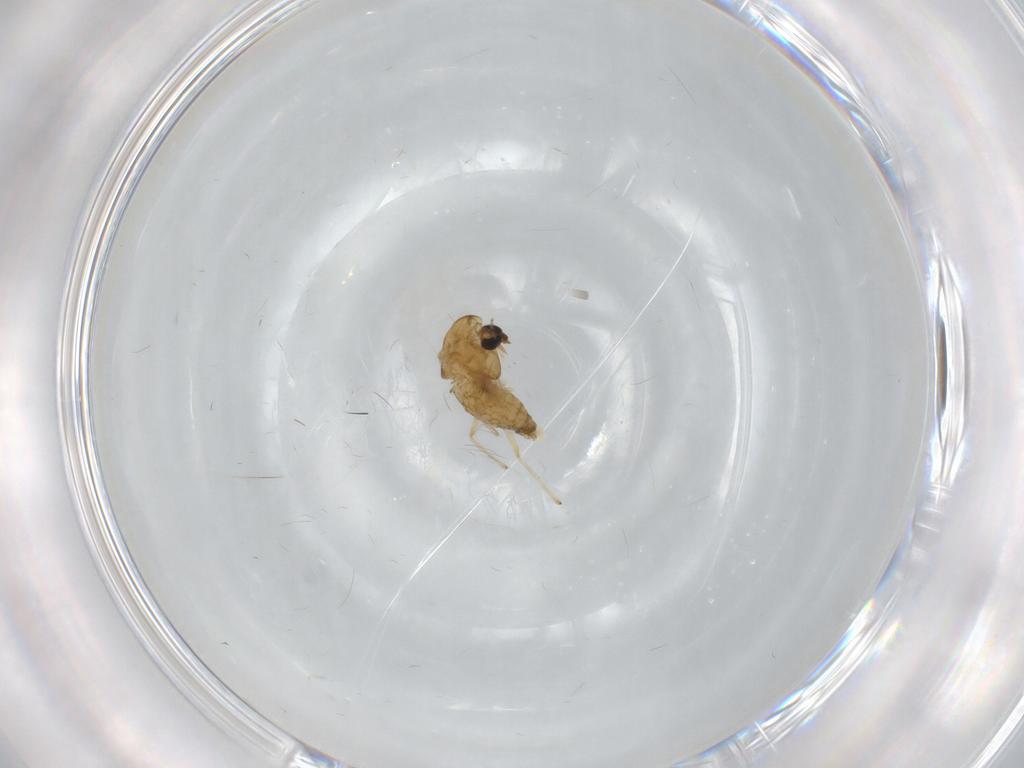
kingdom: Animalia
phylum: Arthropoda
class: Insecta
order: Diptera
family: Chironomidae
